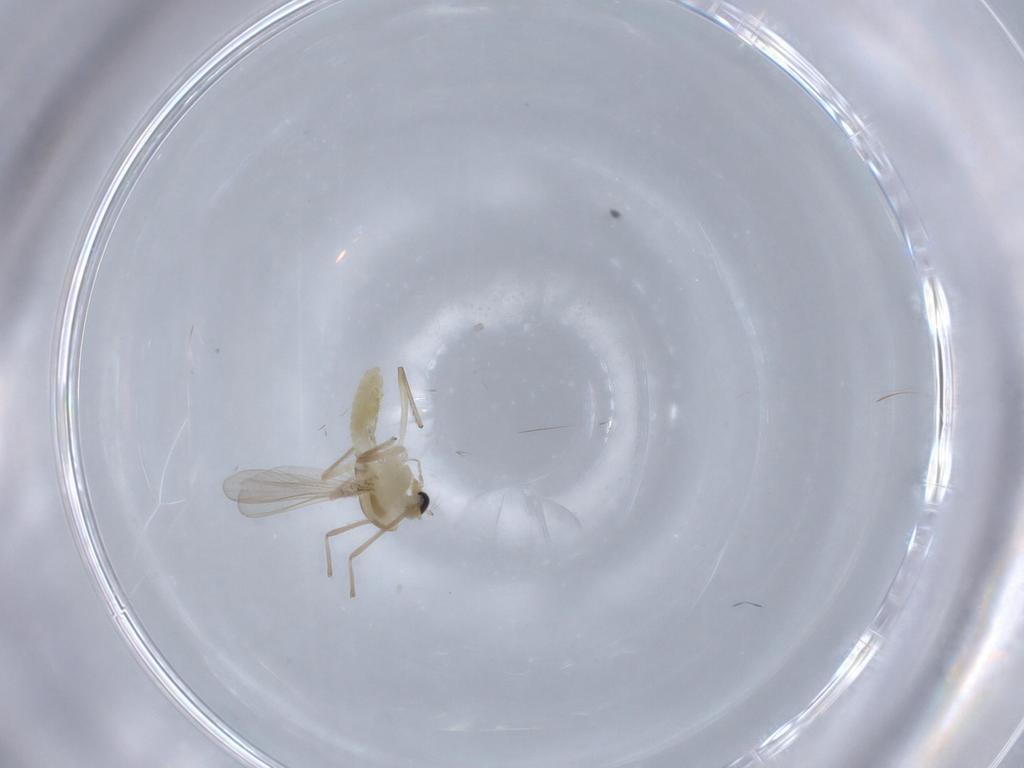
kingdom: Animalia
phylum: Arthropoda
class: Insecta
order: Diptera
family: Chironomidae
